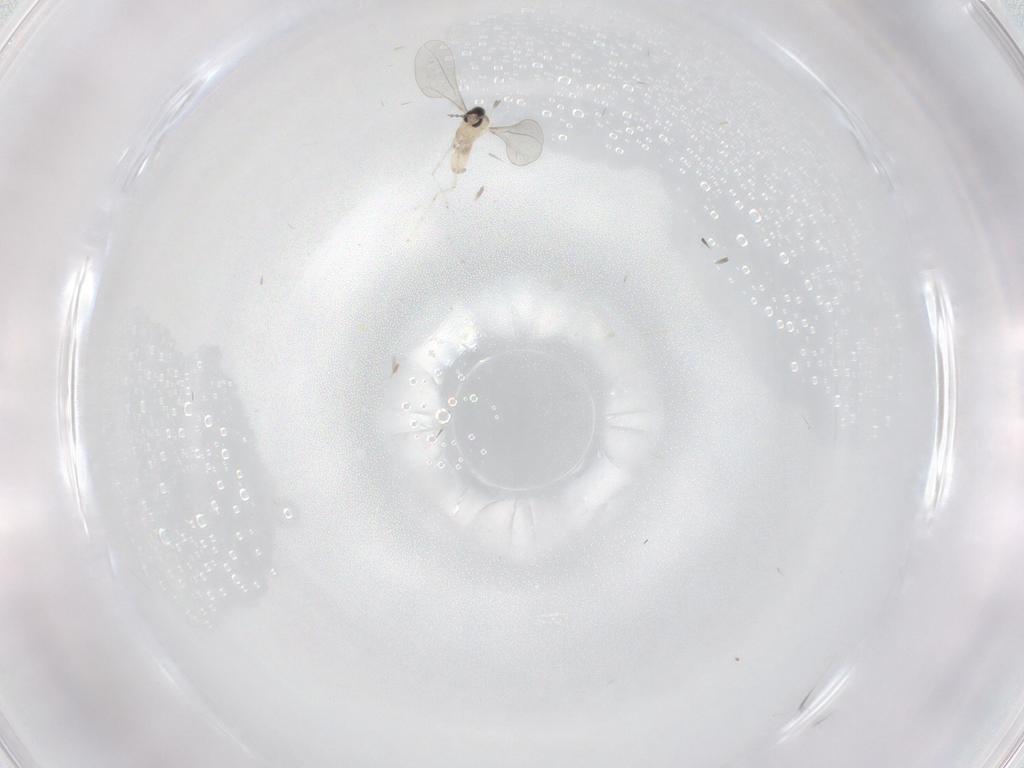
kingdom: Animalia
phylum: Arthropoda
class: Insecta
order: Diptera
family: Cecidomyiidae
